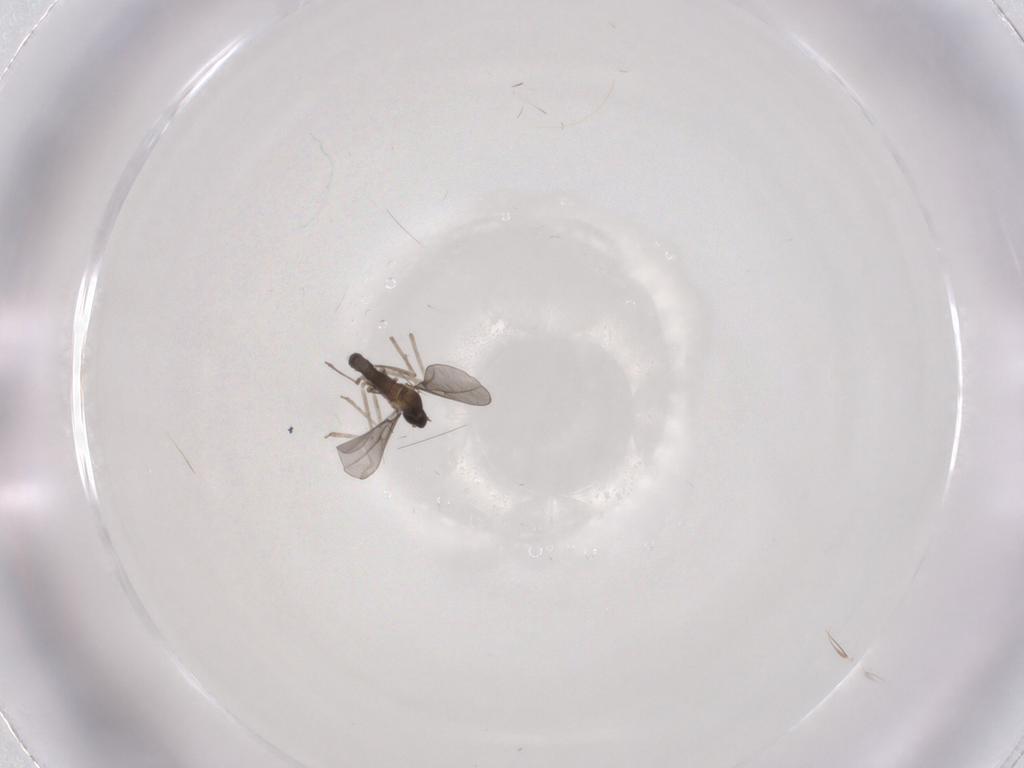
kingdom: Animalia
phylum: Arthropoda
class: Insecta
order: Diptera
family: Cecidomyiidae
